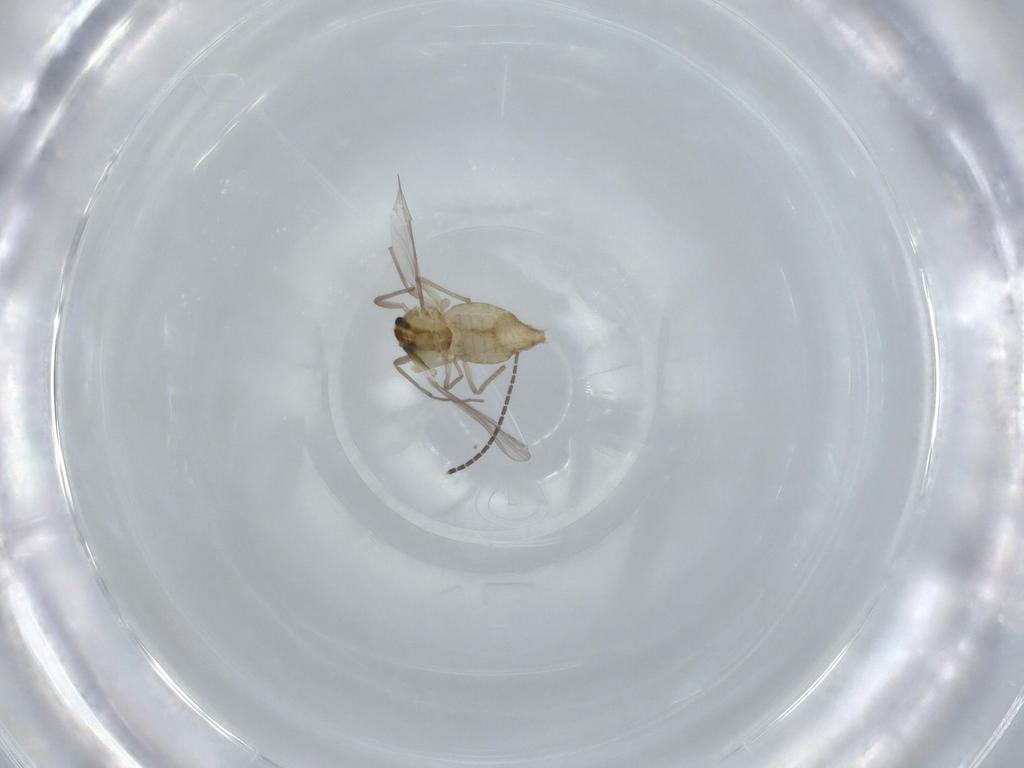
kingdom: Animalia
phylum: Arthropoda
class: Insecta
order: Diptera
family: Chironomidae
